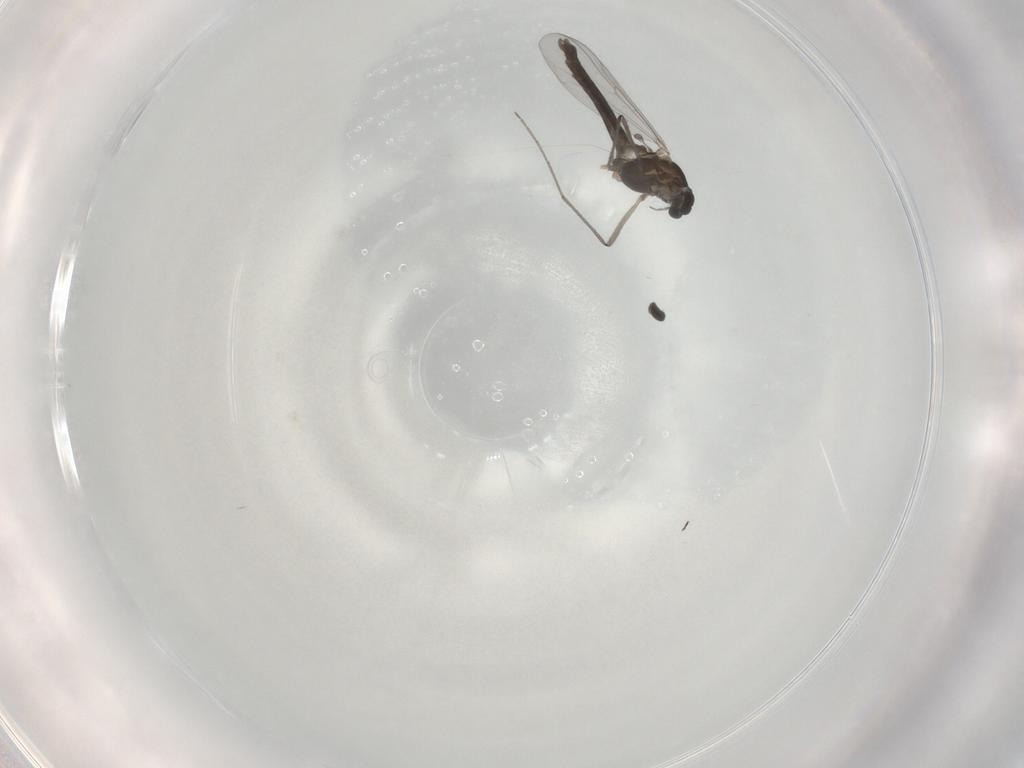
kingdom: Animalia
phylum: Arthropoda
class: Insecta
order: Diptera
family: Chironomidae
